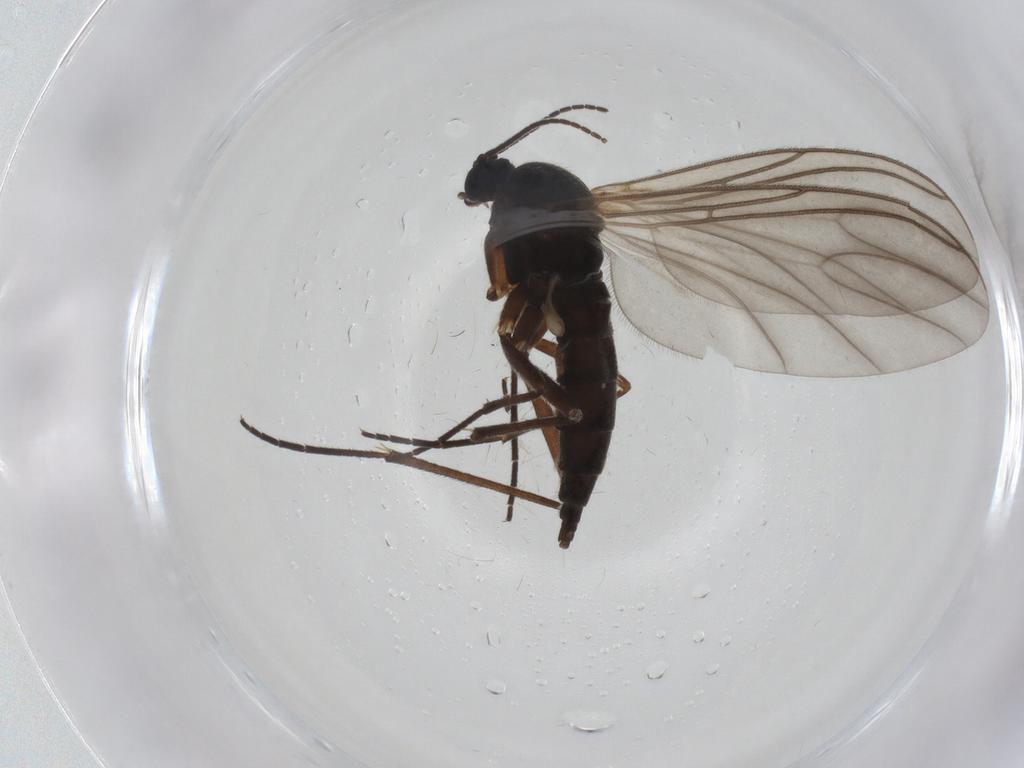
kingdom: Animalia
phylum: Arthropoda
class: Insecta
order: Diptera
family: Sciaridae
